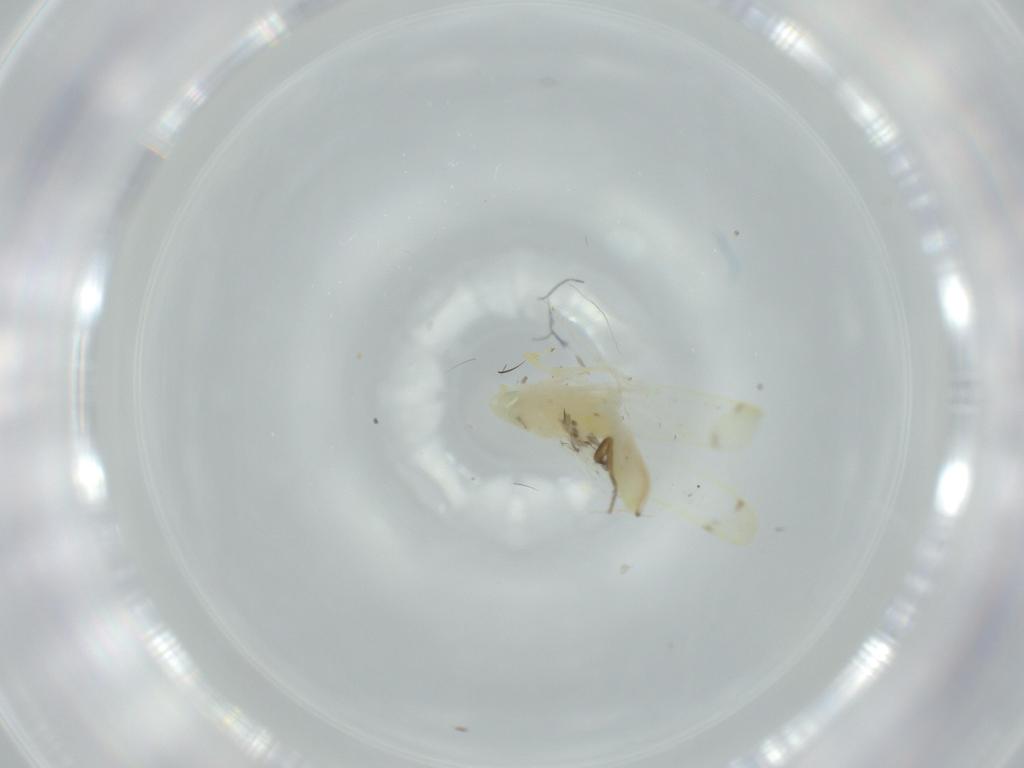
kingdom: Animalia
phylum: Arthropoda
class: Insecta
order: Hemiptera
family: Cicadellidae
